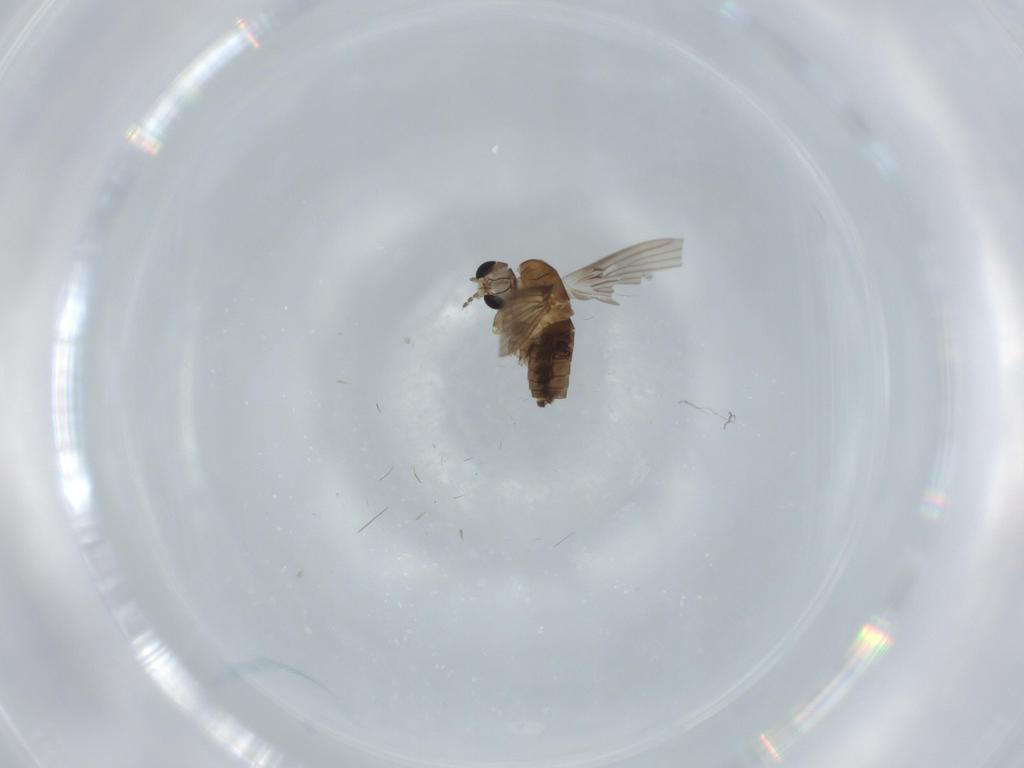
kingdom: Animalia
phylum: Arthropoda
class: Insecta
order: Diptera
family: Psychodidae
